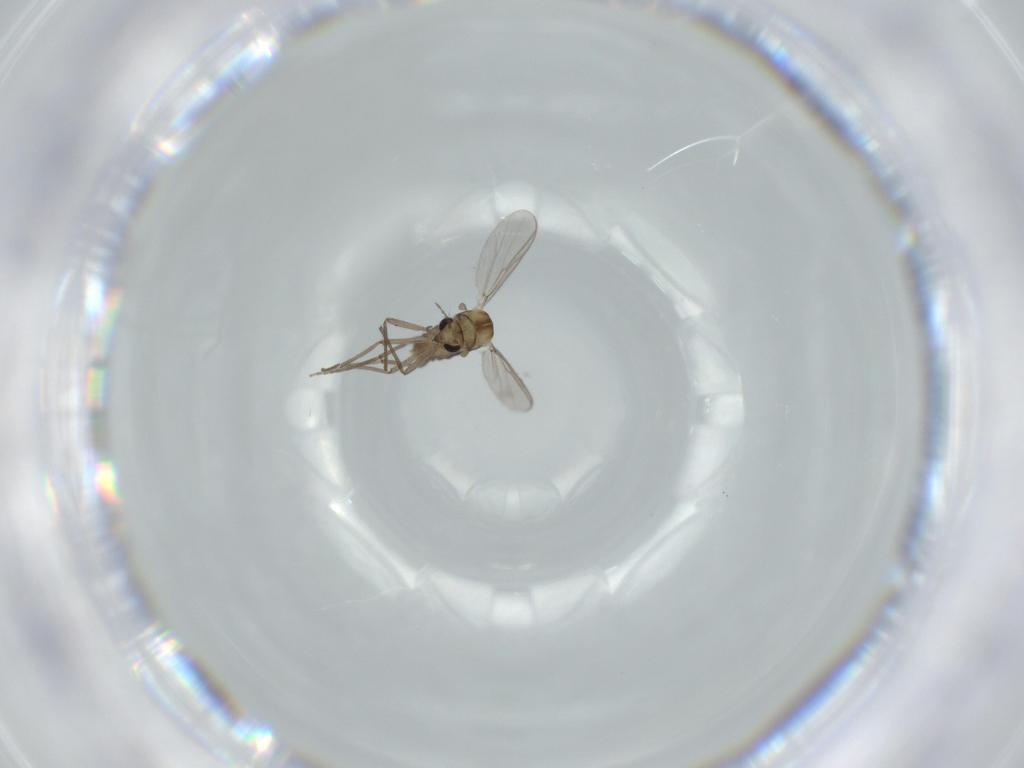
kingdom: Animalia
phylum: Arthropoda
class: Insecta
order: Diptera
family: Chironomidae
